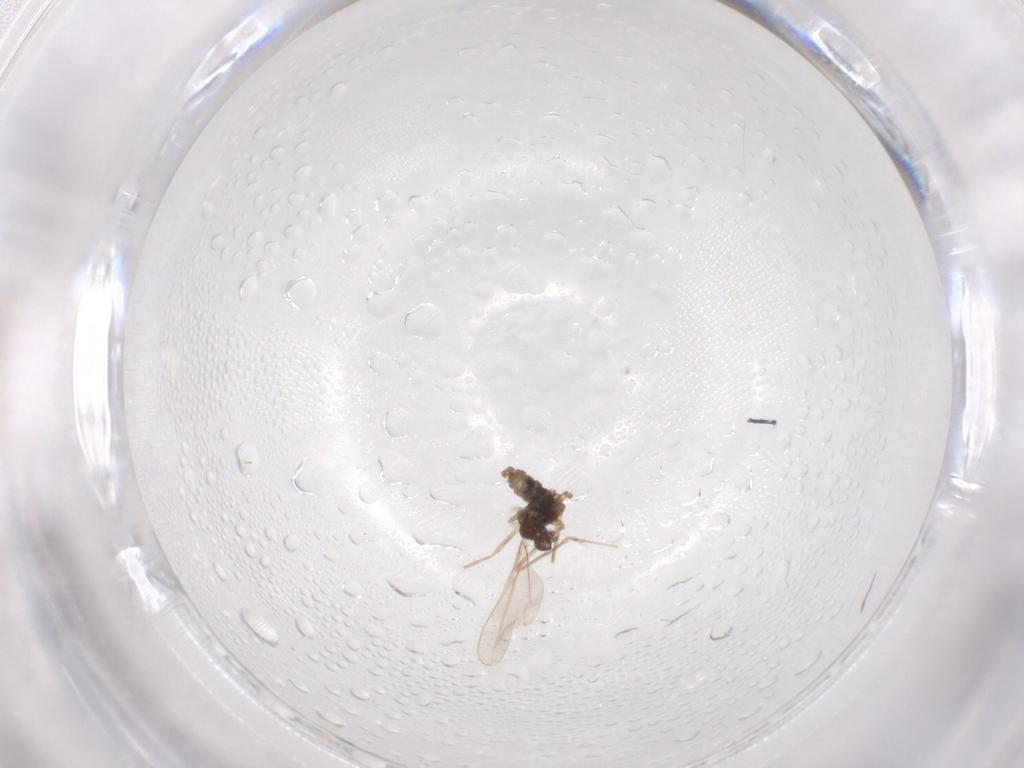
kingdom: Animalia
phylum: Arthropoda
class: Insecta
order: Diptera
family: Cecidomyiidae
